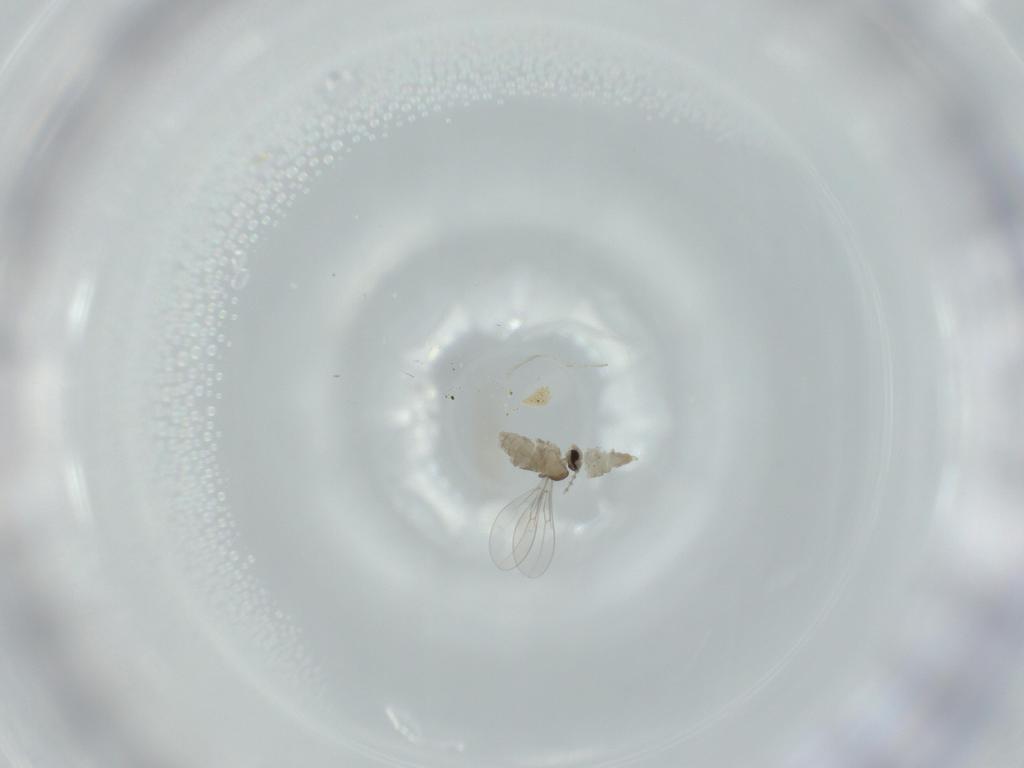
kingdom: Animalia
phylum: Arthropoda
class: Insecta
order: Diptera
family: Cecidomyiidae
